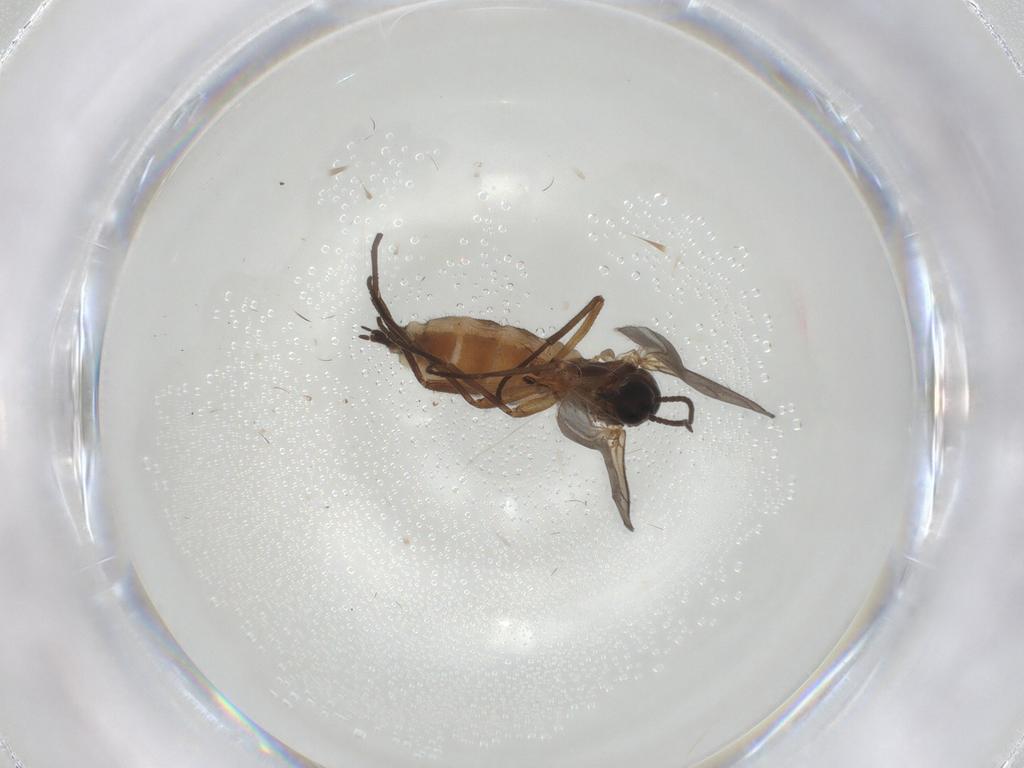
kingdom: Animalia
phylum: Arthropoda
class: Insecta
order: Diptera
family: Sciaridae
